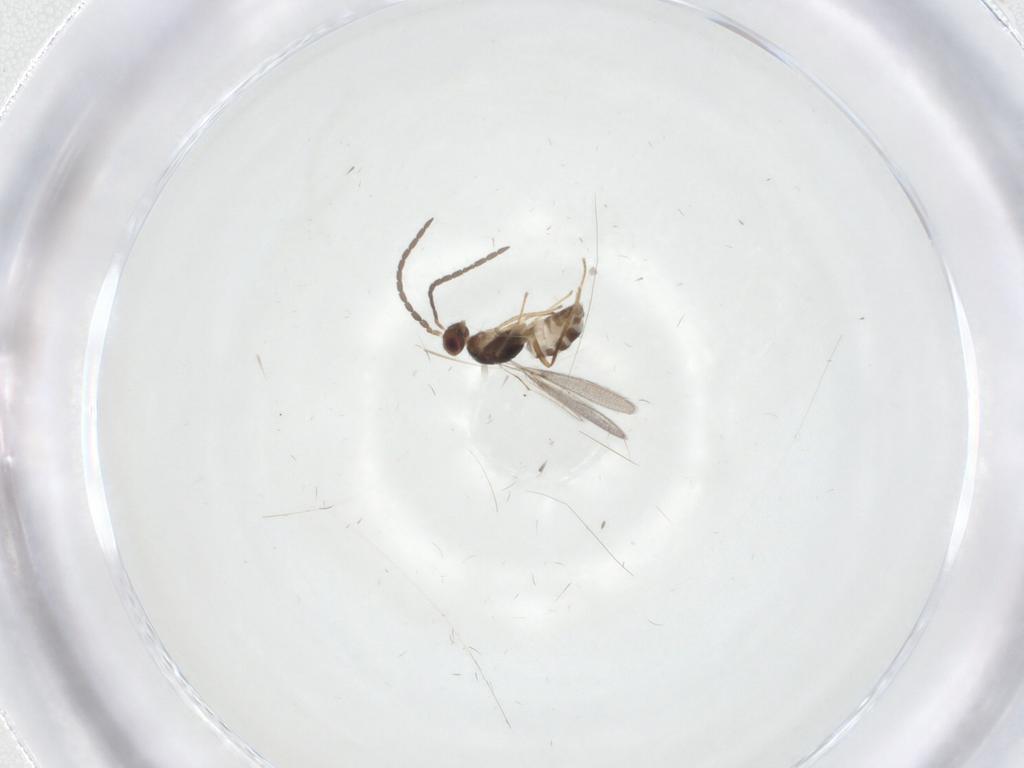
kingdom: Animalia
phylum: Arthropoda
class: Insecta
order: Hymenoptera
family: Mymaridae
